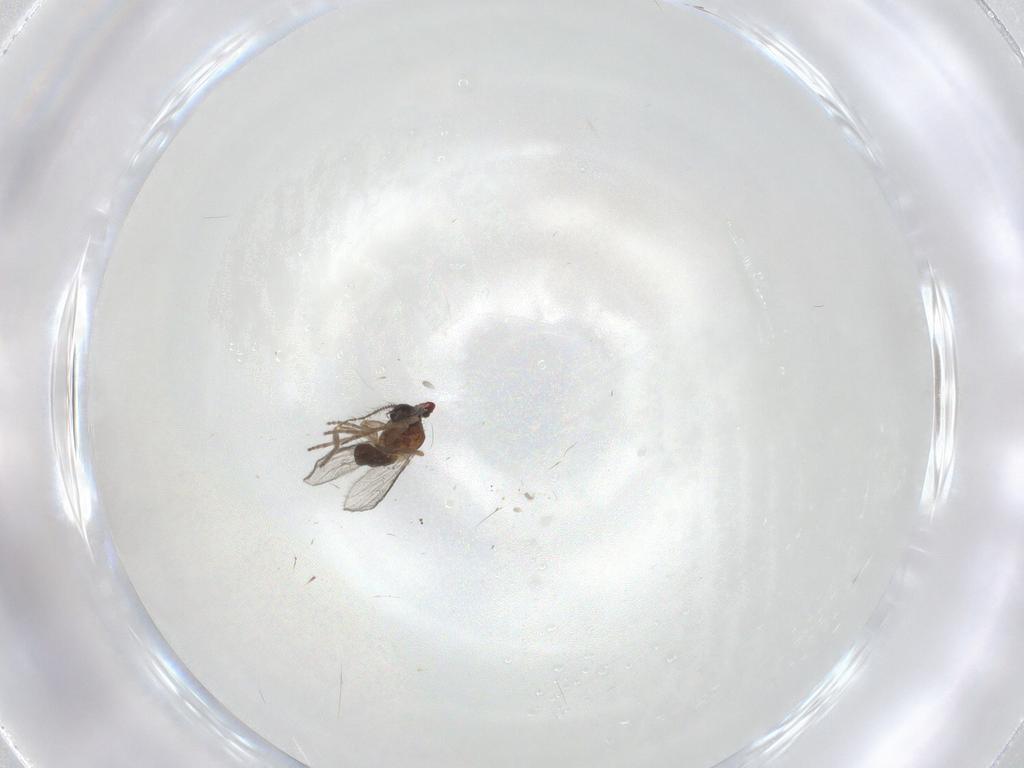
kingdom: Animalia
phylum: Arthropoda
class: Insecta
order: Diptera
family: Ceratopogonidae
